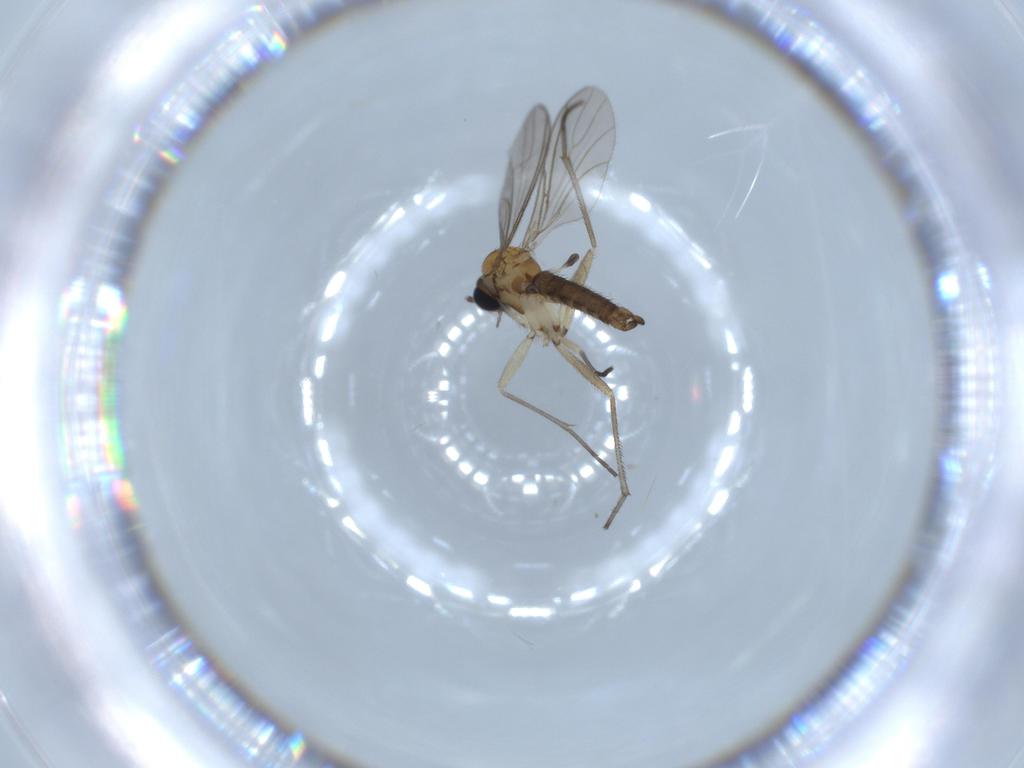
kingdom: Animalia
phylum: Arthropoda
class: Insecta
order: Diptera
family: Sciaridae
